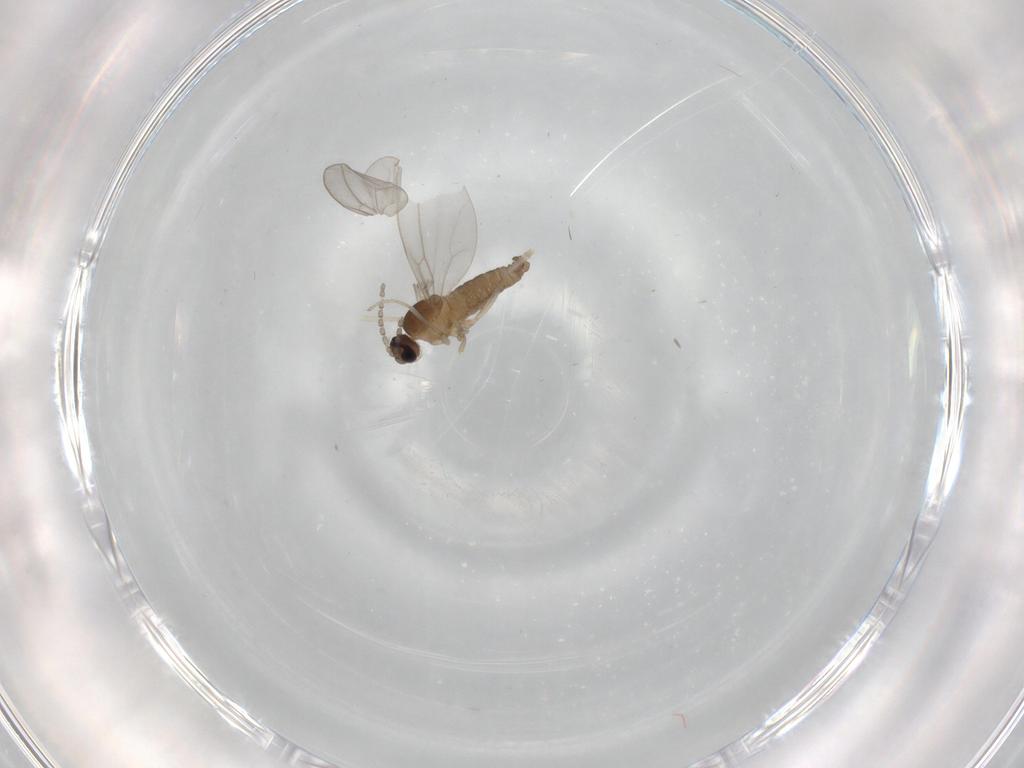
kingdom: Animalia
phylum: Arthropoda
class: Insecta
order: Diptera
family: Cecidomyiidae
